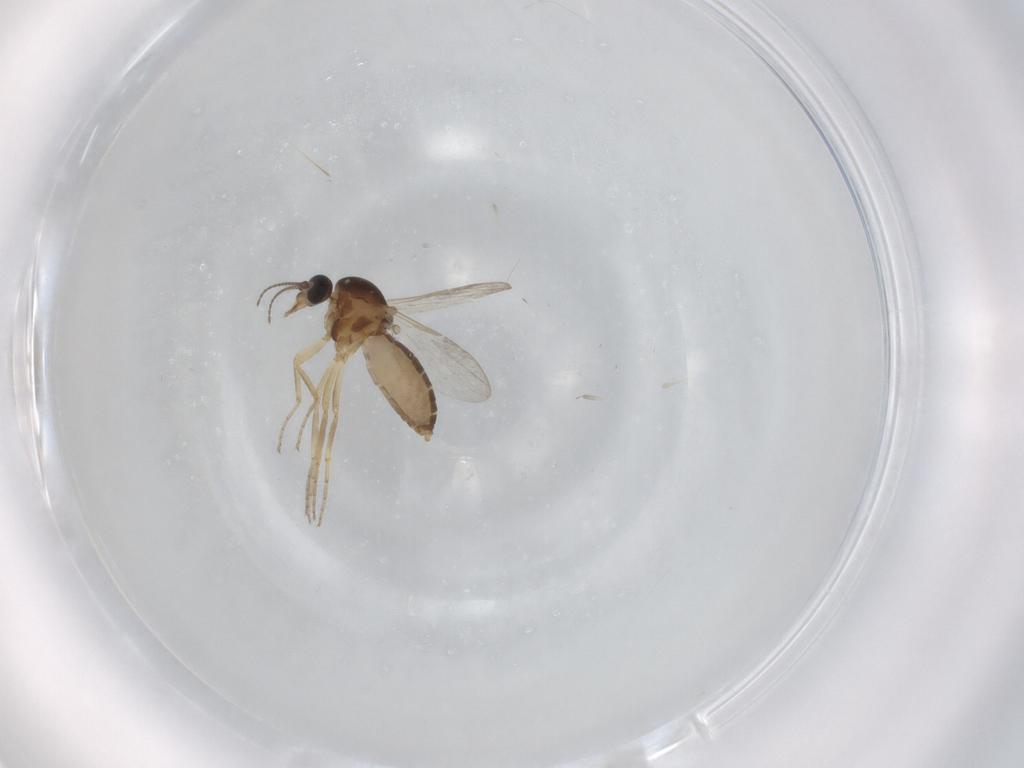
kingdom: Animalia
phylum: Arthropoda
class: Insecta
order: Diptera
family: Ceratopogonidae
